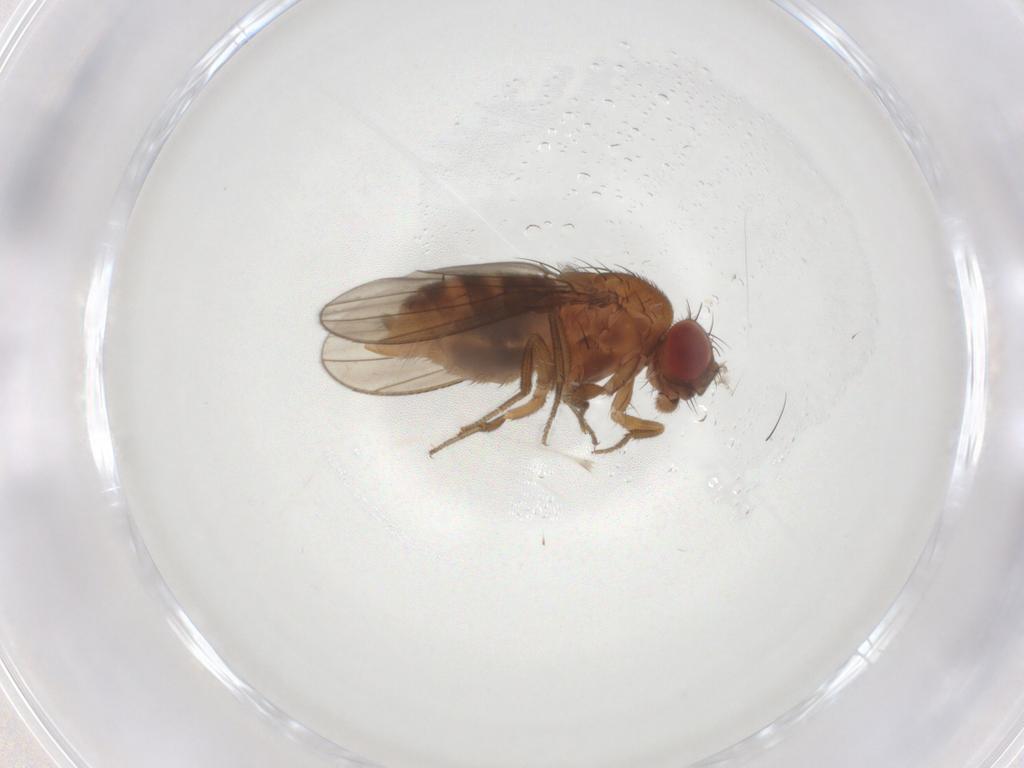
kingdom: Animalia
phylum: Arthropoda
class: Insecta
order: Diptera
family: Drosophilidae
